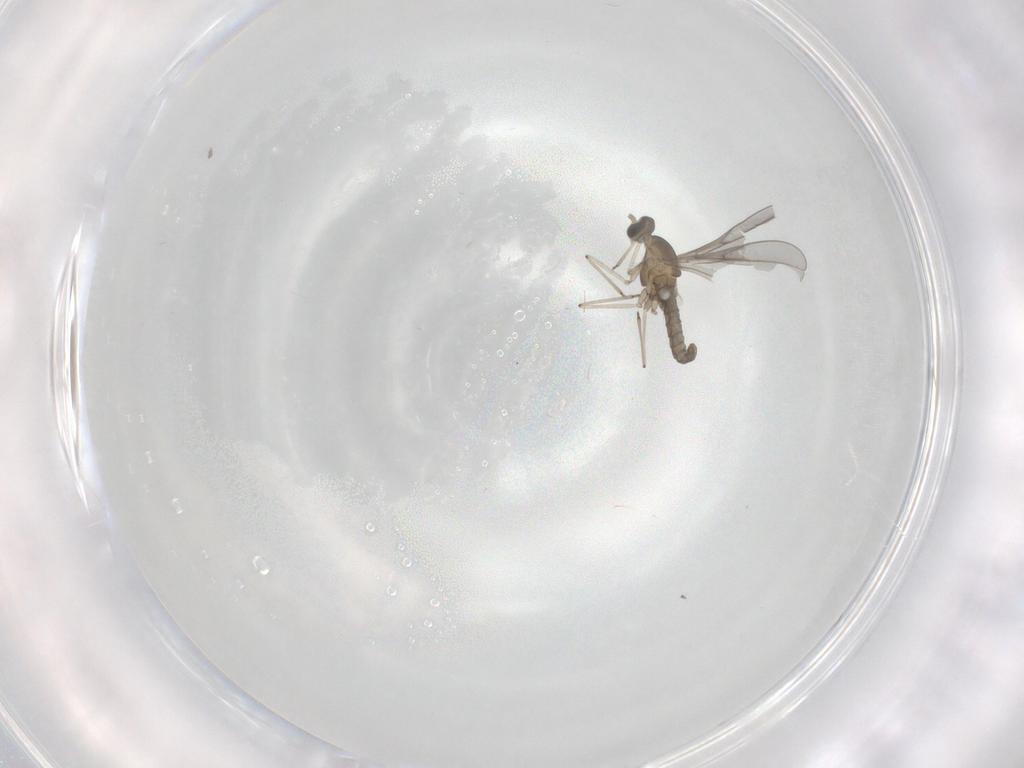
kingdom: Animalia
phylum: Arthropoda
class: Insecta
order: Diptera
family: Cecidomyiidae
